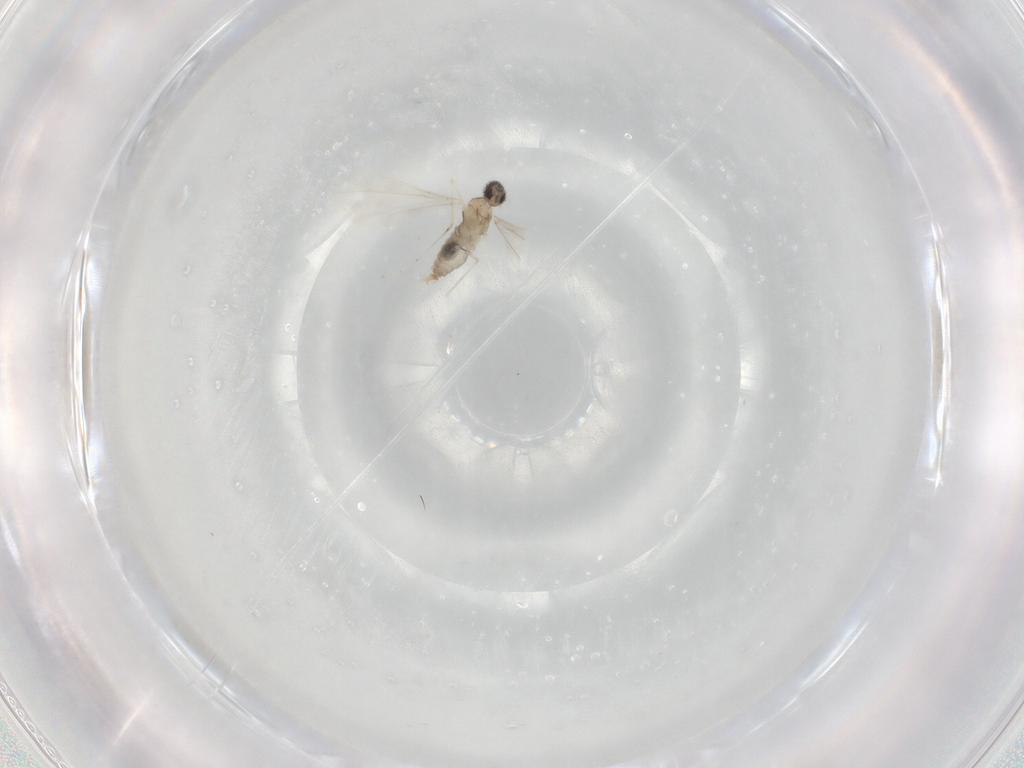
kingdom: Animalia
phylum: Arthropoda
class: Insecta
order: Diptera
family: Cecidomyiidae
